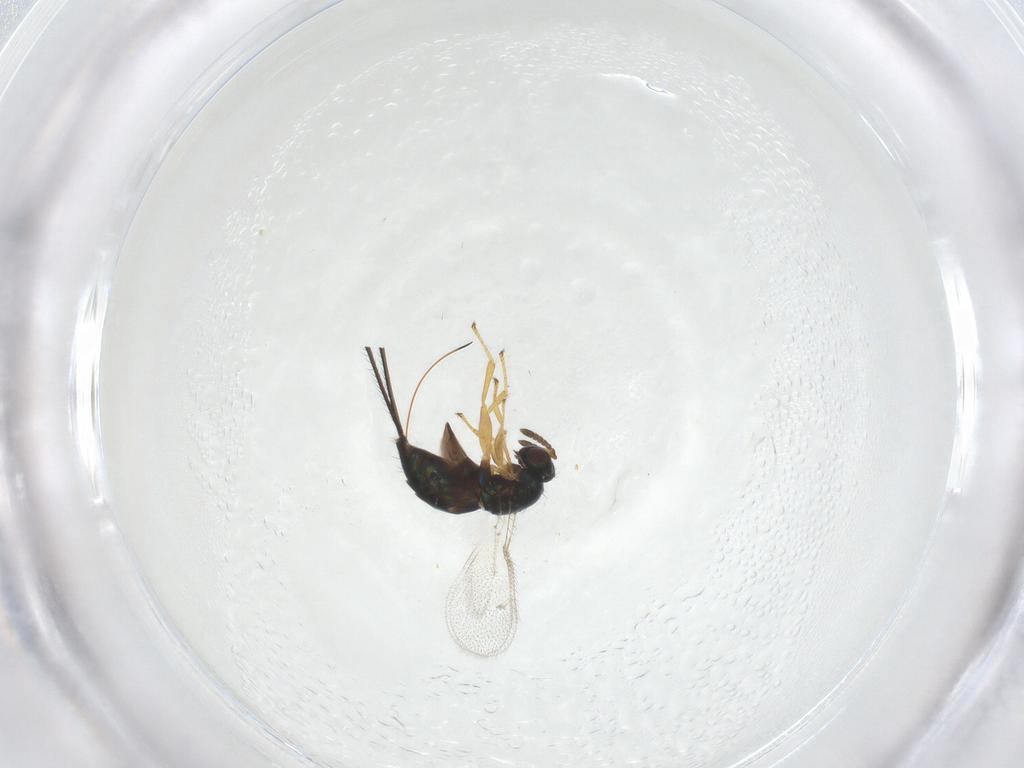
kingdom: Animalia
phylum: Arthropoda
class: Insecta
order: Hymenoptera
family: Torymidae
